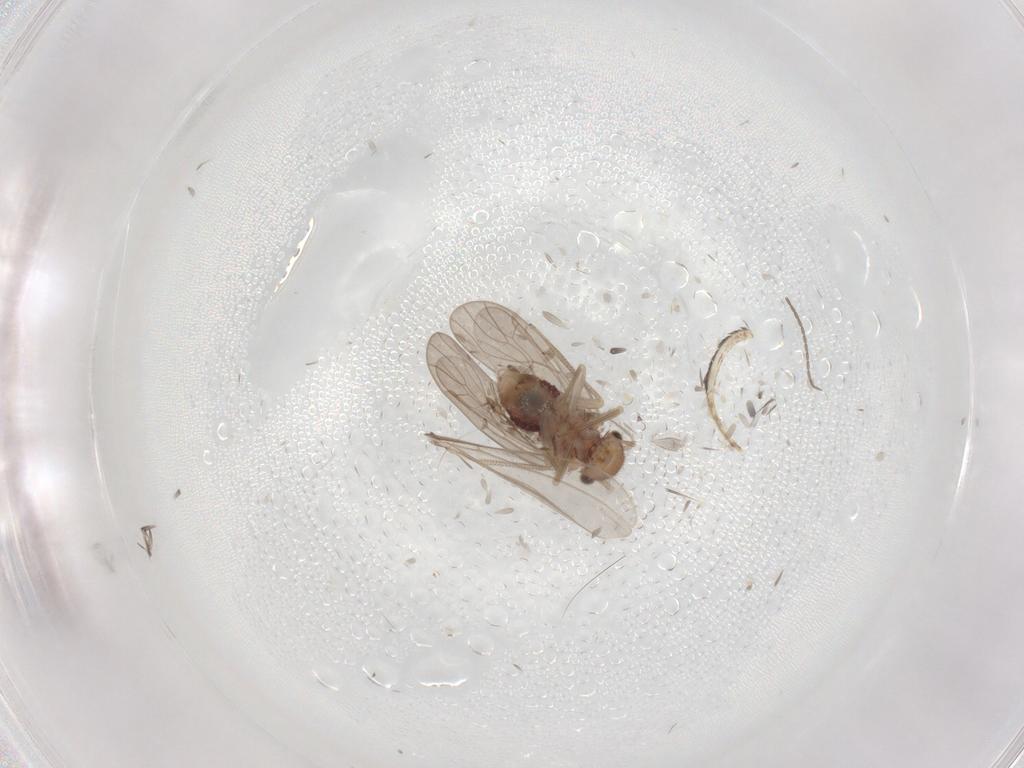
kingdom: Animalia
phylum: Arthropoda
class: Insecta
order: Psocodea
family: Ectopsocidae
